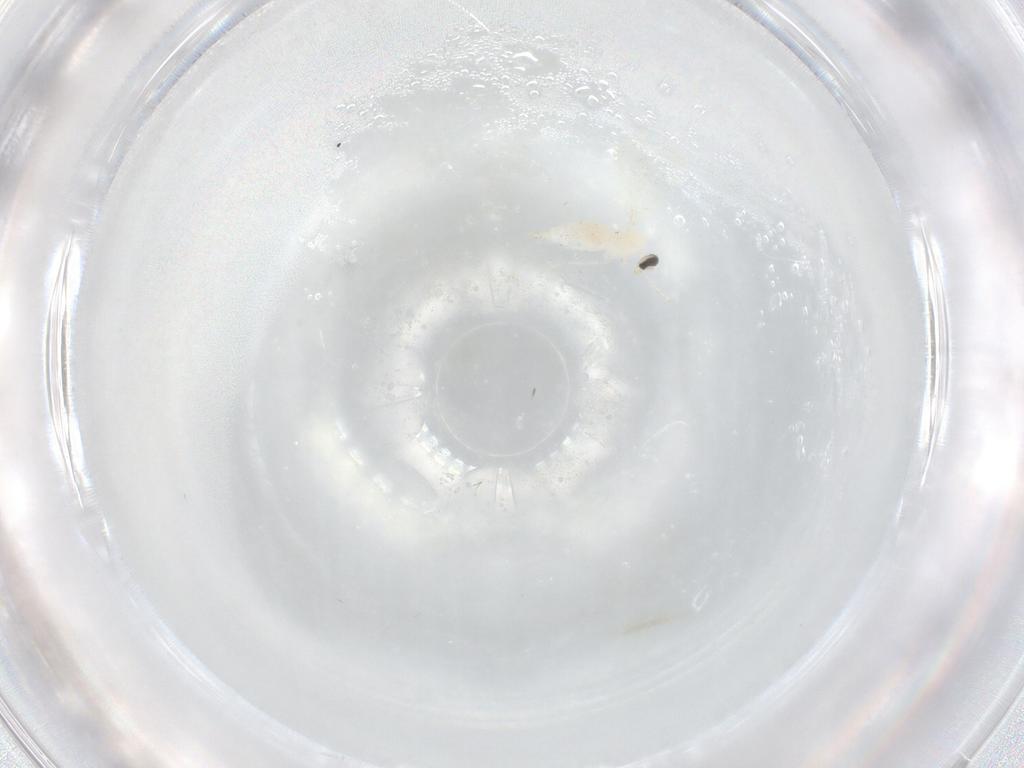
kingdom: Animalia
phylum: Arthropoda
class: Insecta
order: Diptera
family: Cecidomyiidae
